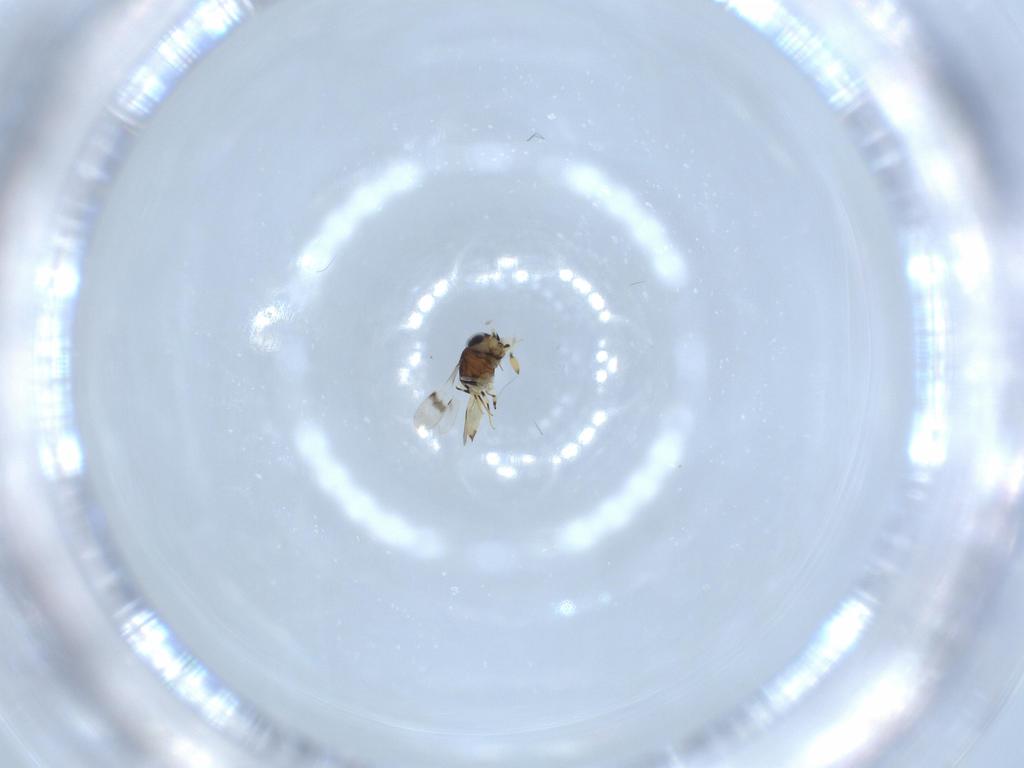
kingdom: Animalia
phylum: Arthropoda
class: Insecta
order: Hymenoptera
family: Scelionidae
